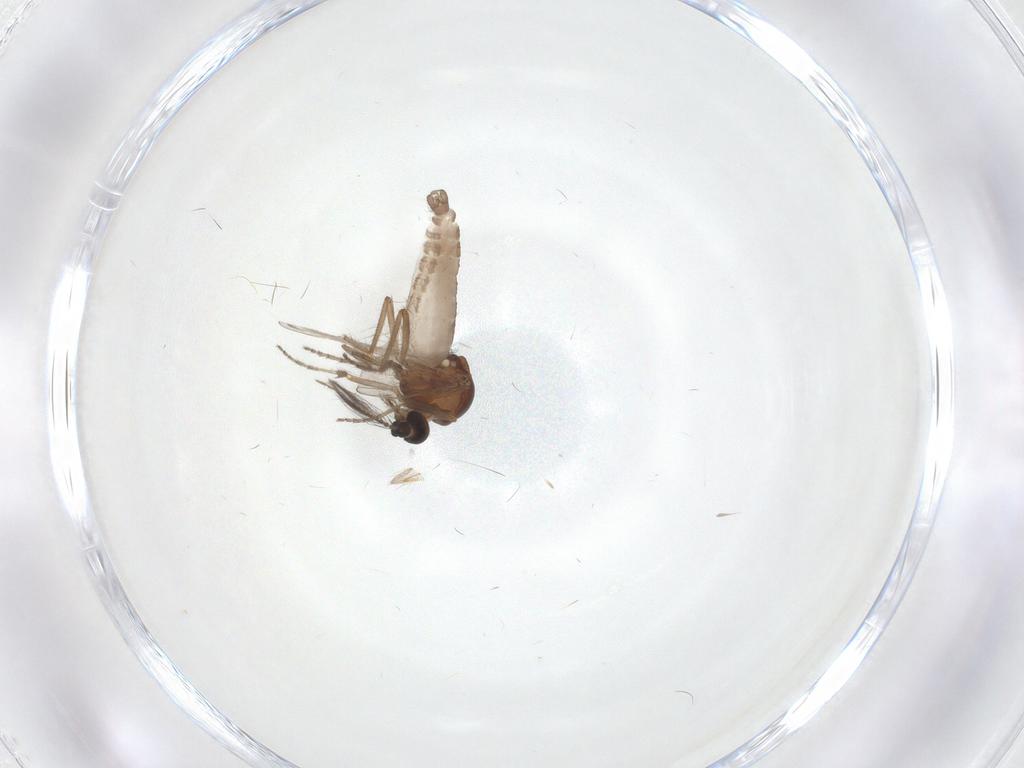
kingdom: Animalia
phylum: Arthropoda
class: Insecta
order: Diptera
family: Ceratopogonidae
